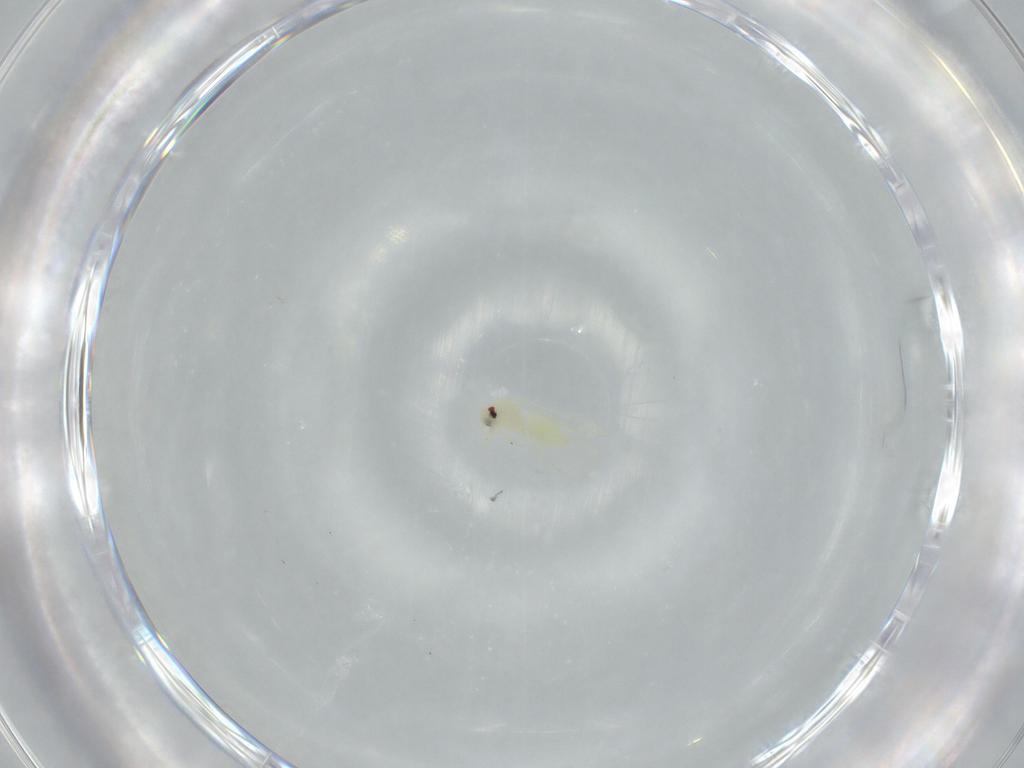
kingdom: Animalia
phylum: Arthropoda
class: Insecta
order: Hemiptera
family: Aleyrodidae
